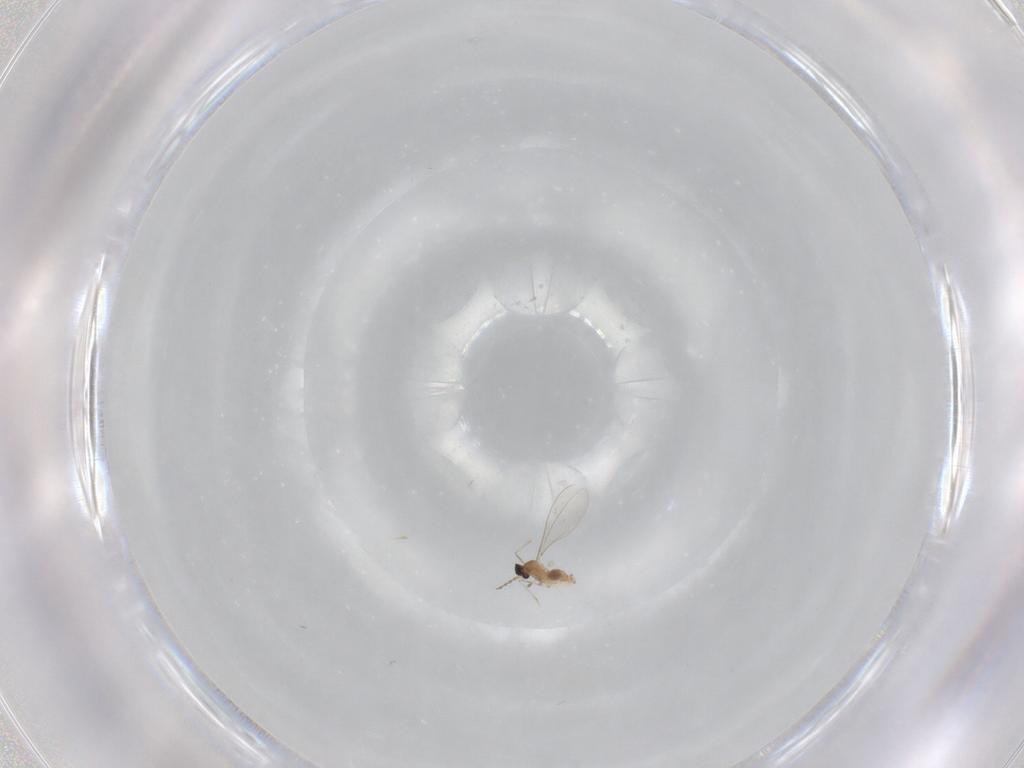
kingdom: Animalia
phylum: Arthropoda
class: Insecta
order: Diptera
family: Cecidomyiidae
